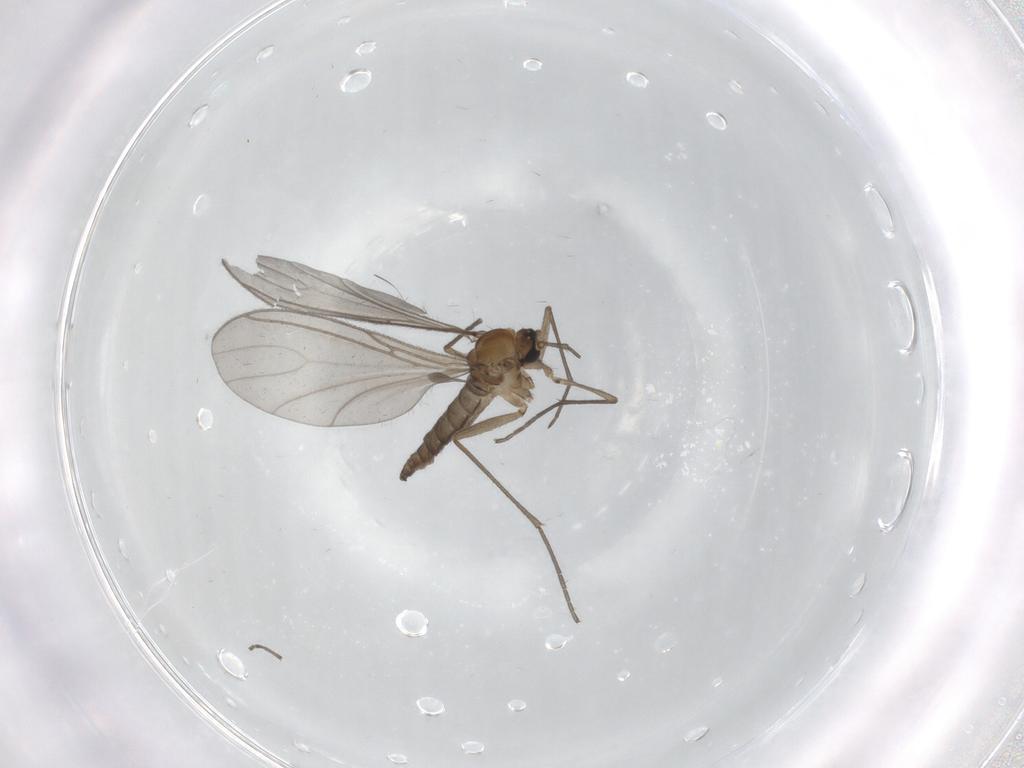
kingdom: Animalia
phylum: Arthropoda
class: Insecta
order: Diptera
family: Sciaridae
